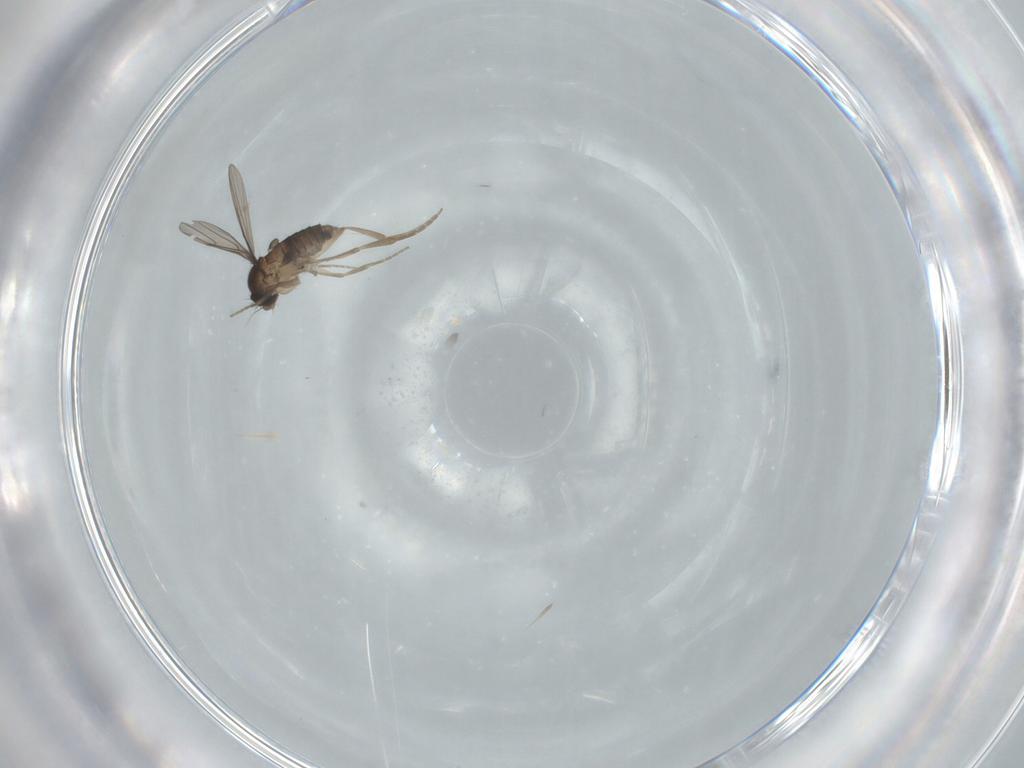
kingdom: Animalia
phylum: Arthropoda
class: Insecta
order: Diptera
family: Phoridae
